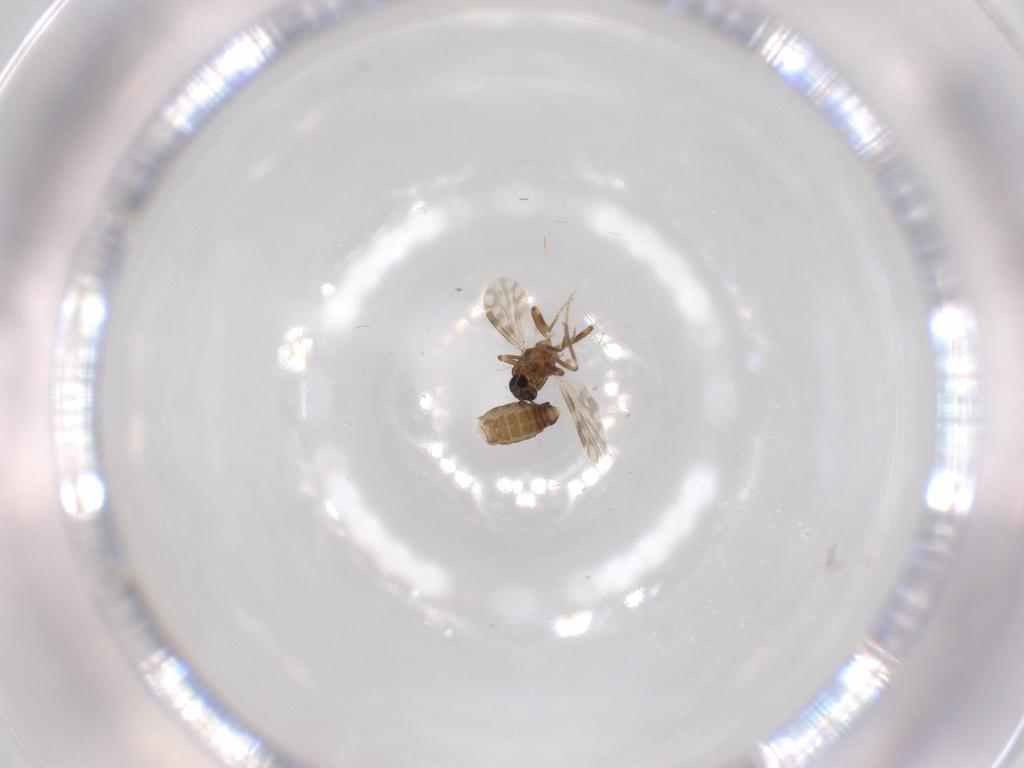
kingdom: Animalia
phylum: Arthropoda
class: Insecta
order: Diptera
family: Ceratopogonidae
